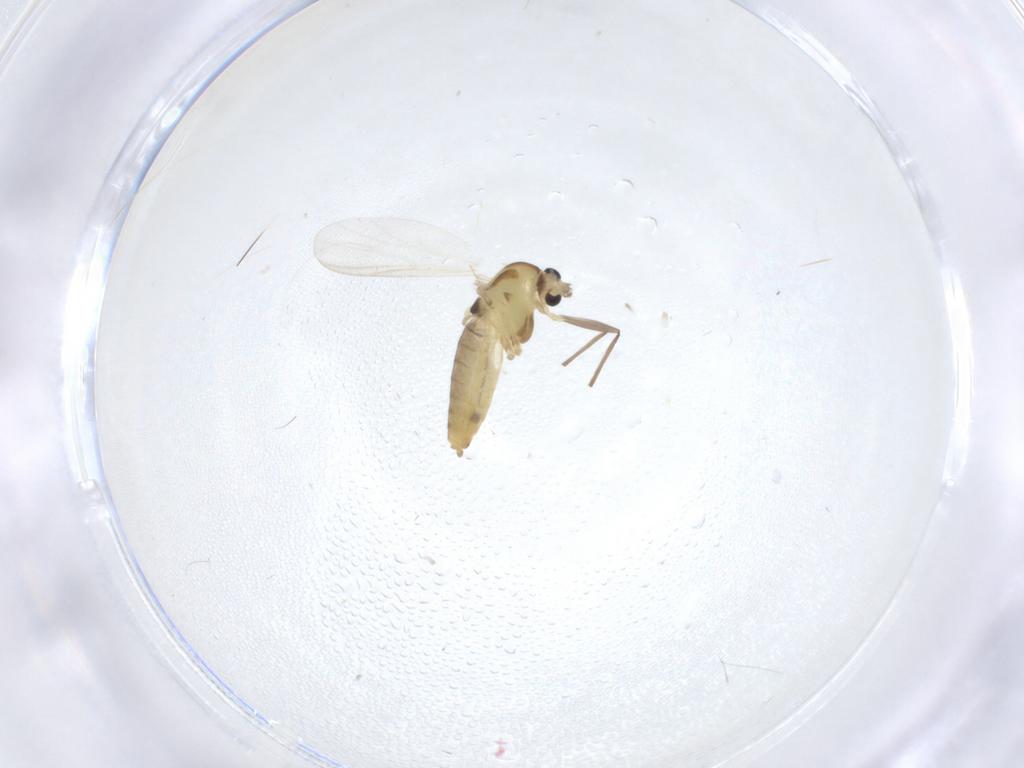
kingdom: Animalia
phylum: Arthropoda
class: Insecta
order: Diptera
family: Chironomidae
